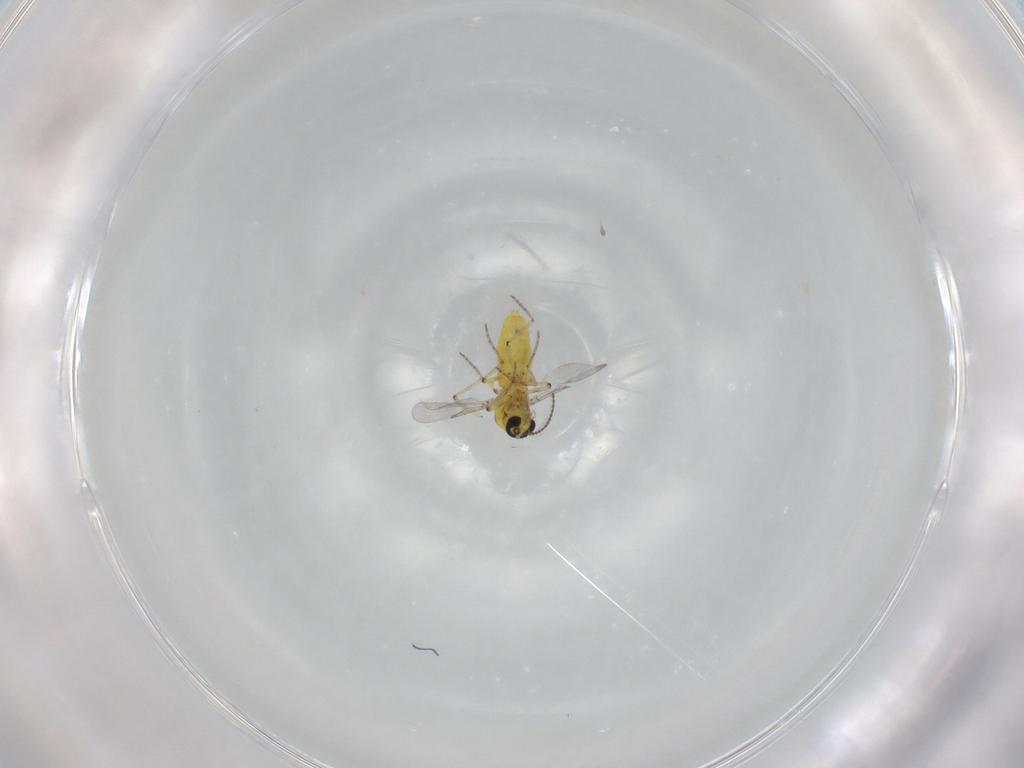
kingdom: Animalia
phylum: Arthropoda
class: Insecta
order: Diptera
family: Ceratopogonidae
